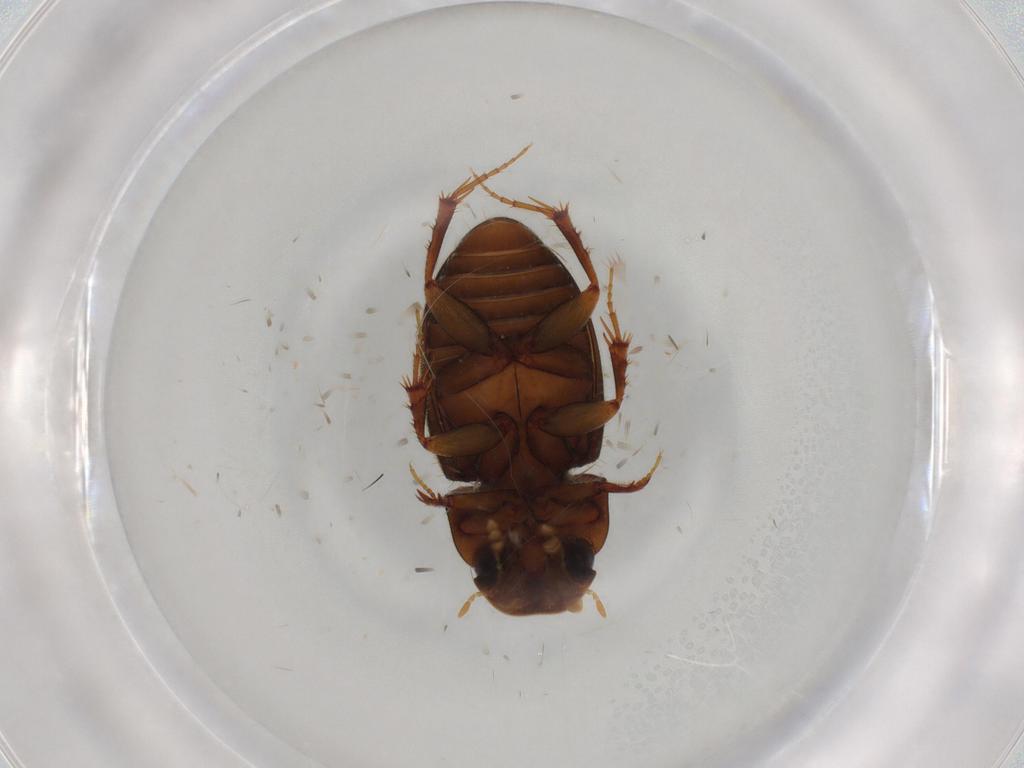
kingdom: Animalia
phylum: Arthropoda
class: Insecta
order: Coleoptera
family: Scarabaeidae
